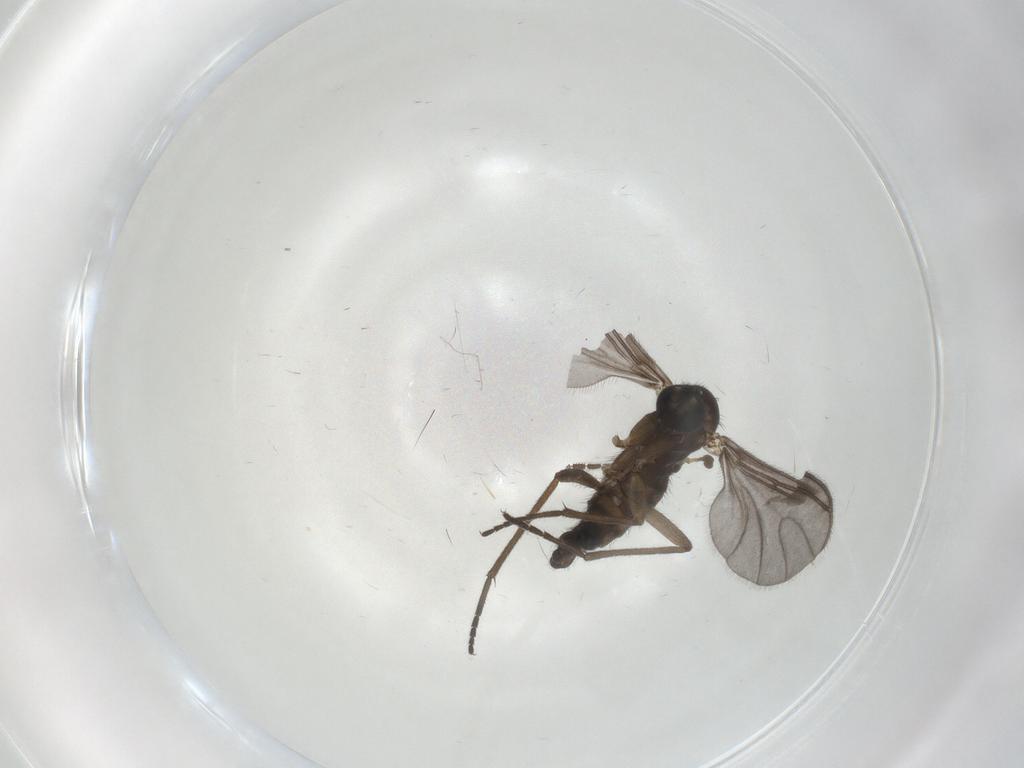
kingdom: Animalia
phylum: Arthropoda
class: Insecta
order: Diptera
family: Sciaridae
